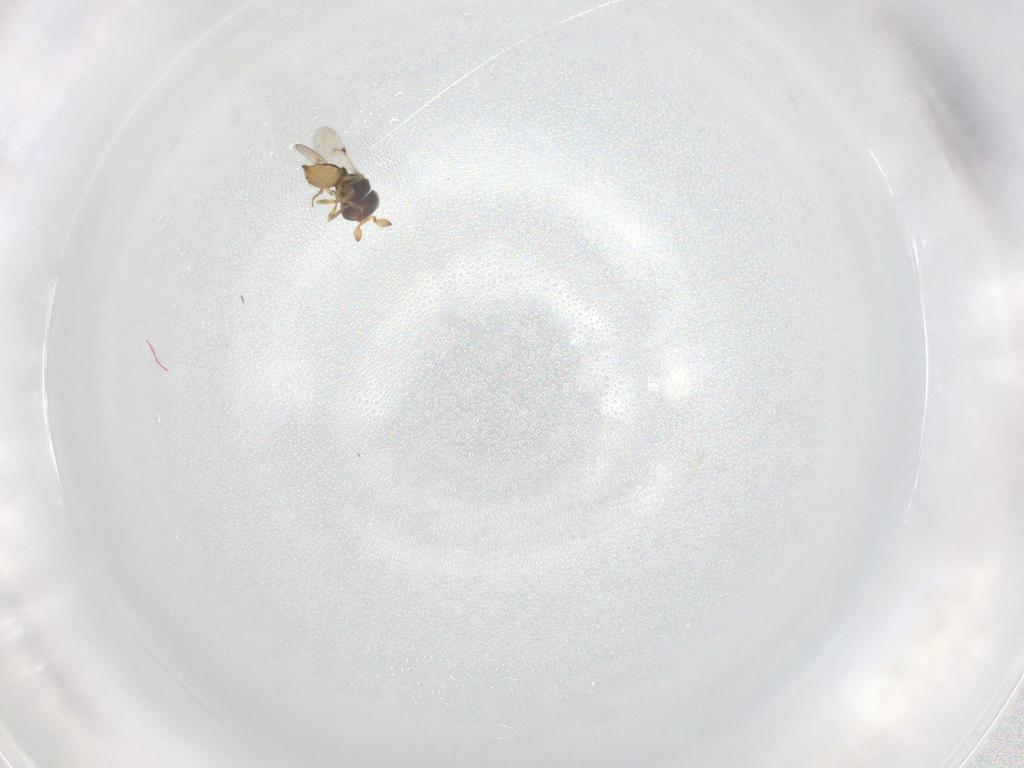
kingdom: Animalia
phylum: Arthropoda
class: Insecta
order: Hymenoptera
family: Scelionidae
